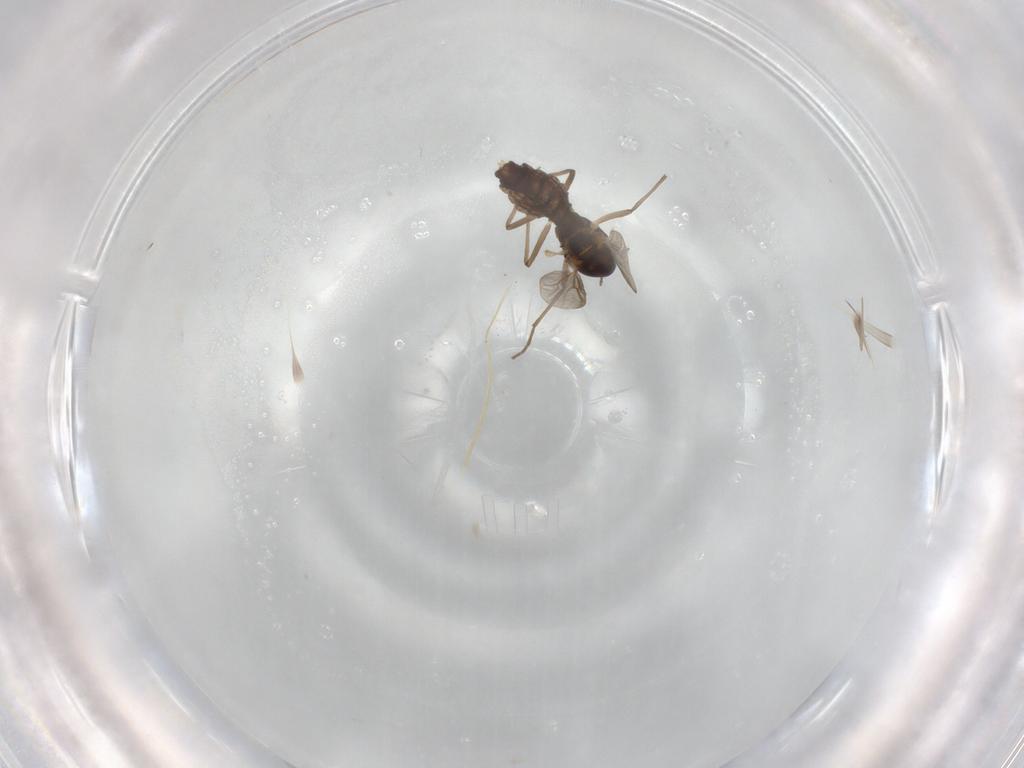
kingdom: Animalia
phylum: Arthropoda
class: Insecta
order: Diptera
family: Chironomidae
